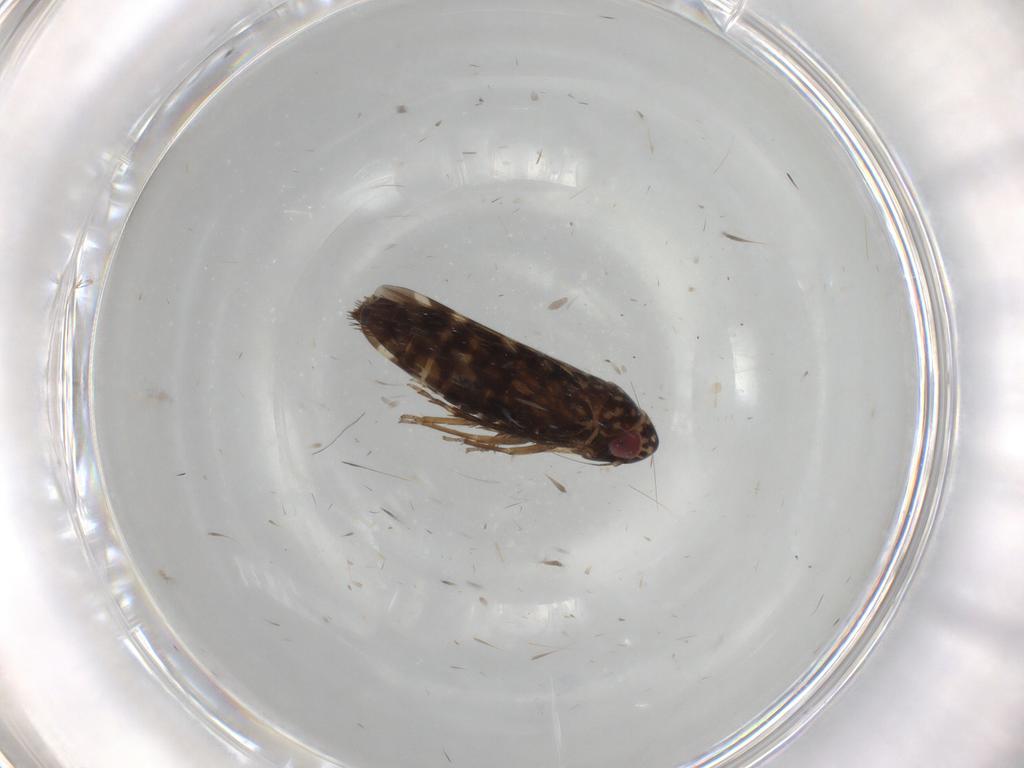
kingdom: Animalia
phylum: Arthropoda
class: Insecta
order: Hemiptera
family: Cicadellidae
